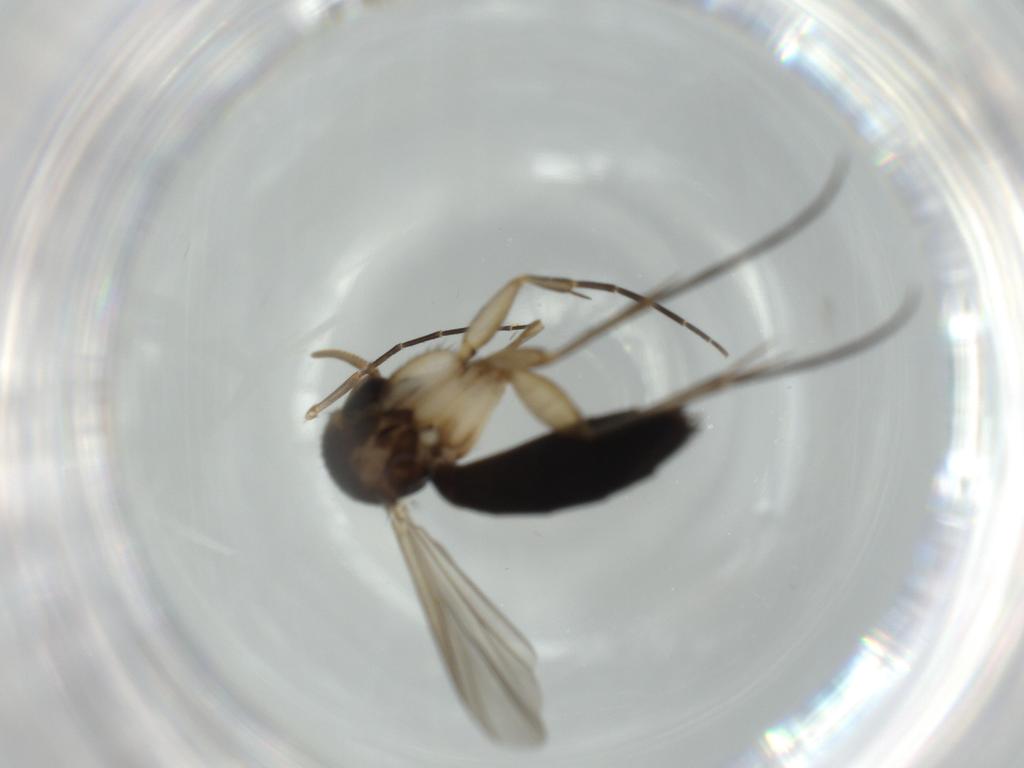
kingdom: Animalia
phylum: Arthropoda
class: Insecta
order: Diptera
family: Phoridae
